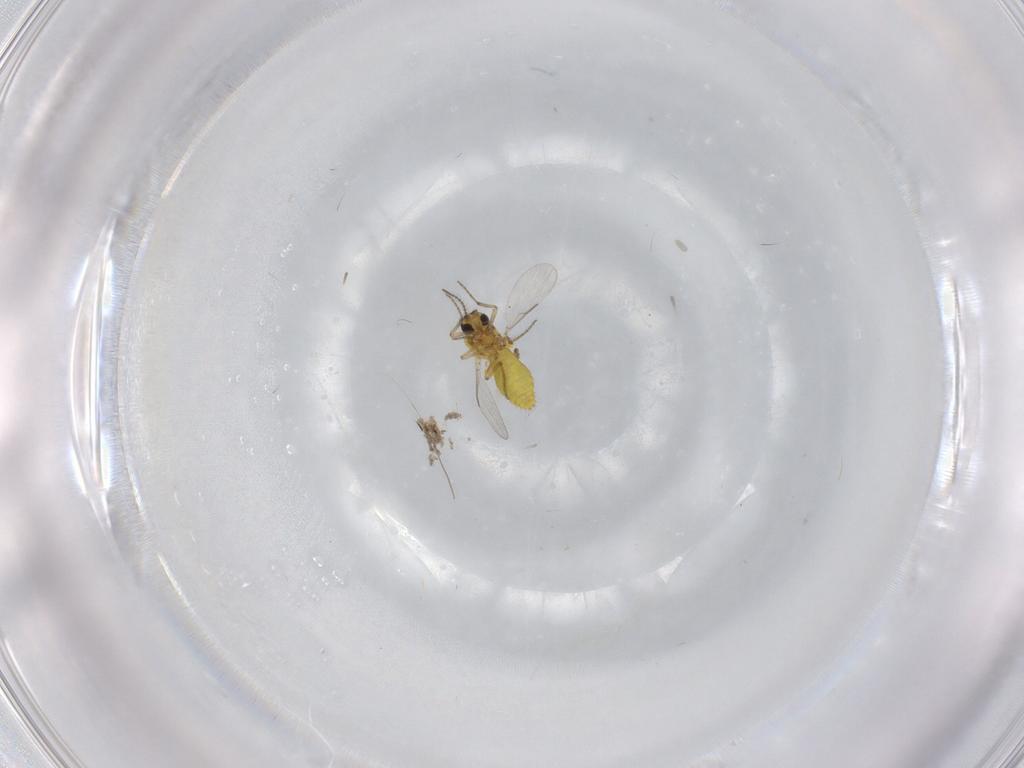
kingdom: Animalia
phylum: Arthropoda
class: Insecta
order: Diptera
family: Ceratopogonidae
